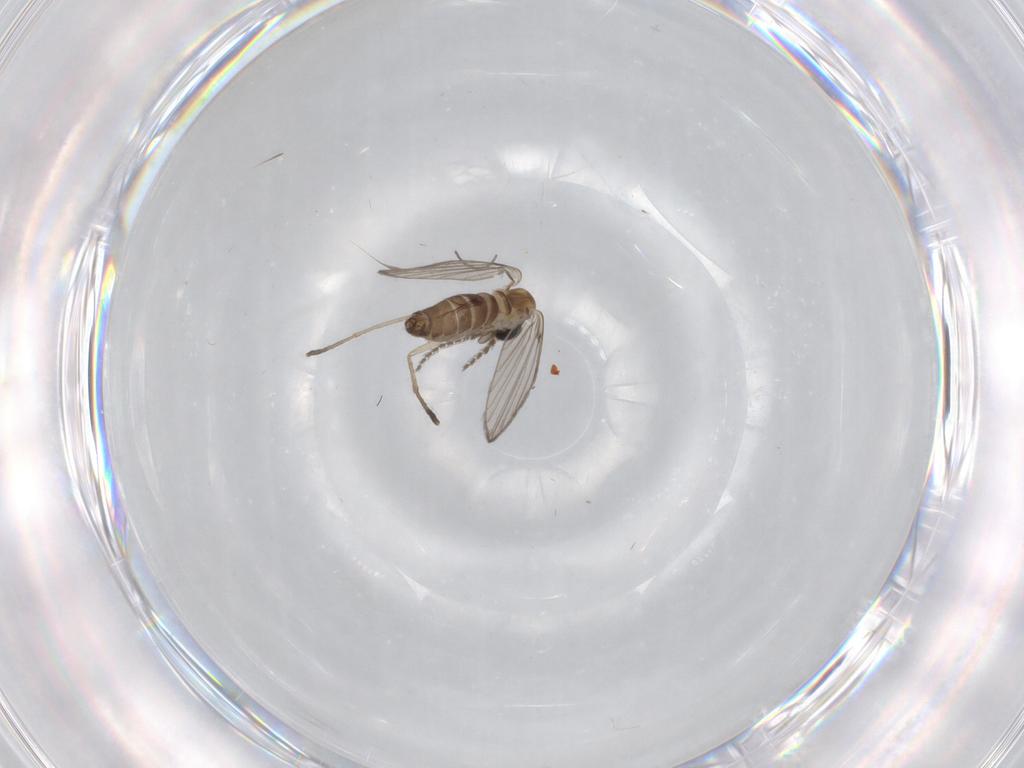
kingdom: Animalia
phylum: Arthropoda
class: Insecta
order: Diptera
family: Cecidomyiidae
